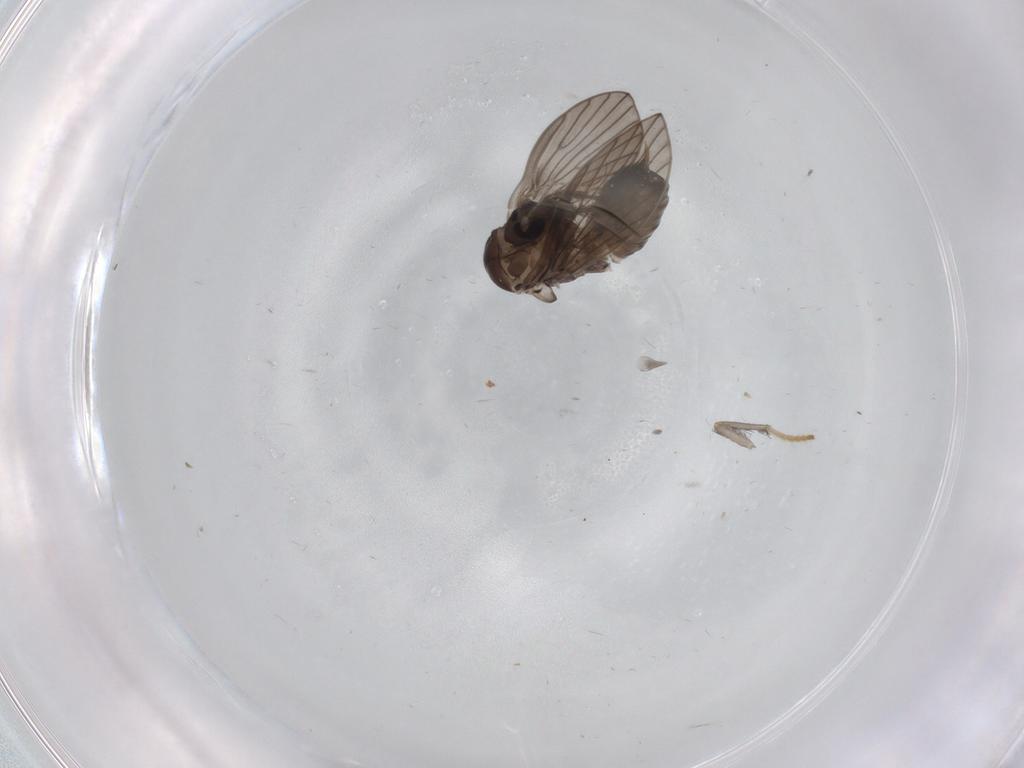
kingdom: Animalia
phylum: Arthropoda
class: Insecta
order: Diptera
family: Psychodidae
